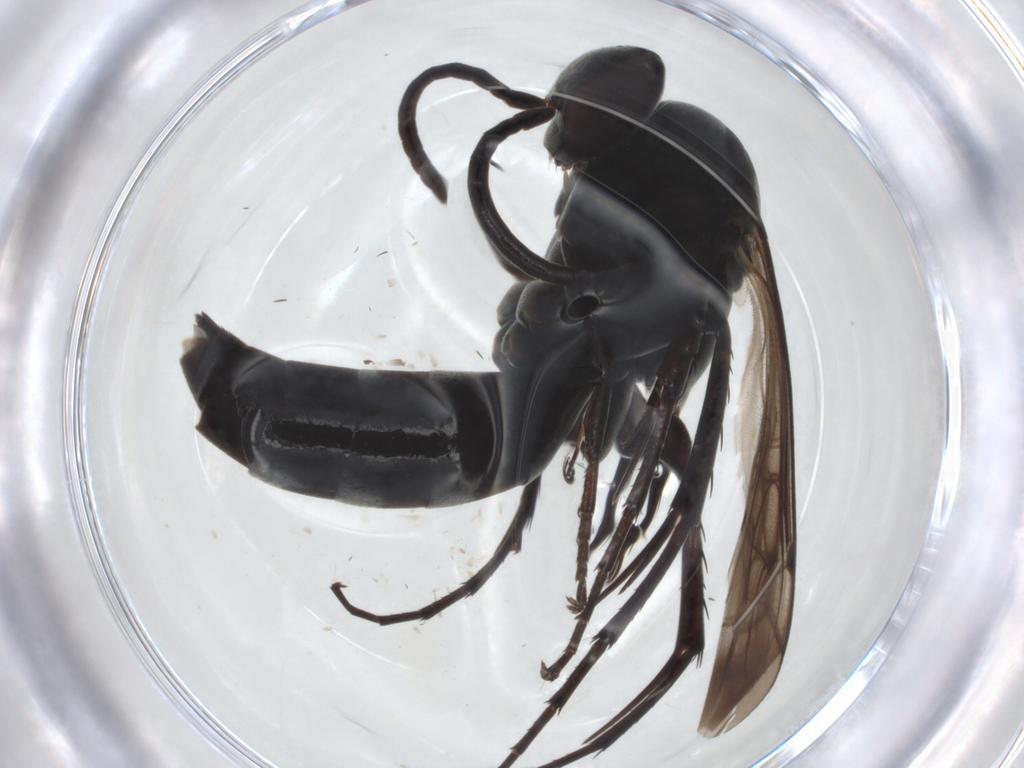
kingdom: Animalia
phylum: Arthropoda
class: Insecta
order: Hymenoptera
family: Pompilidae
